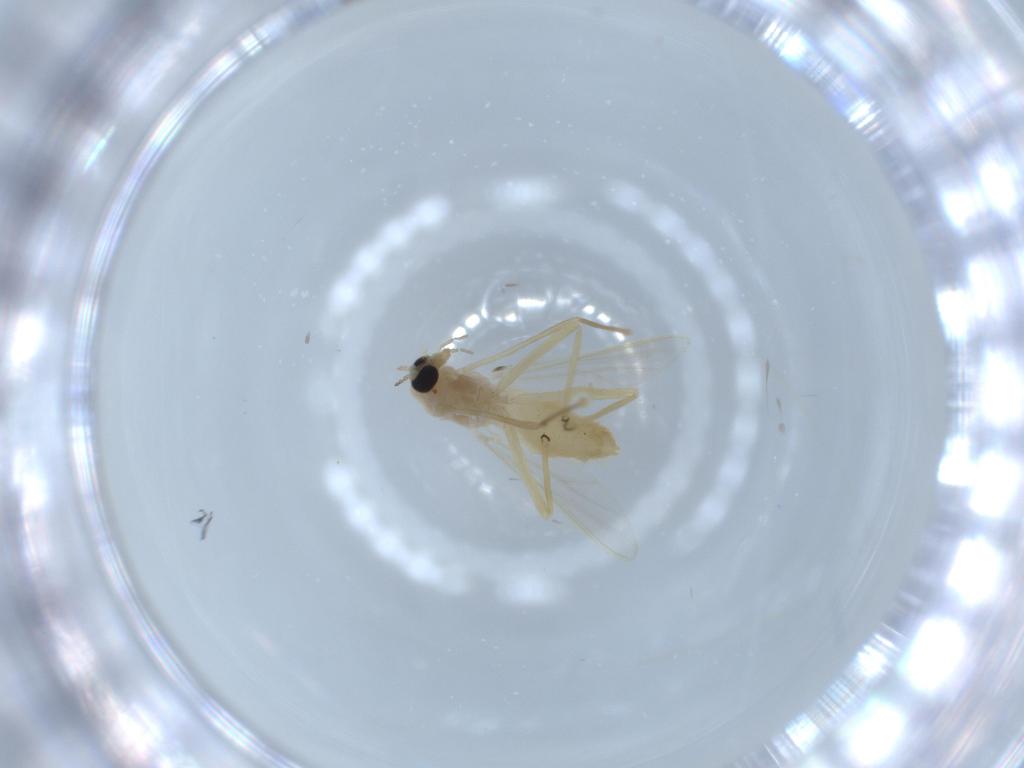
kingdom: Animalia
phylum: Arthropoda
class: Insecta
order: Diptera
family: Chironomidae
